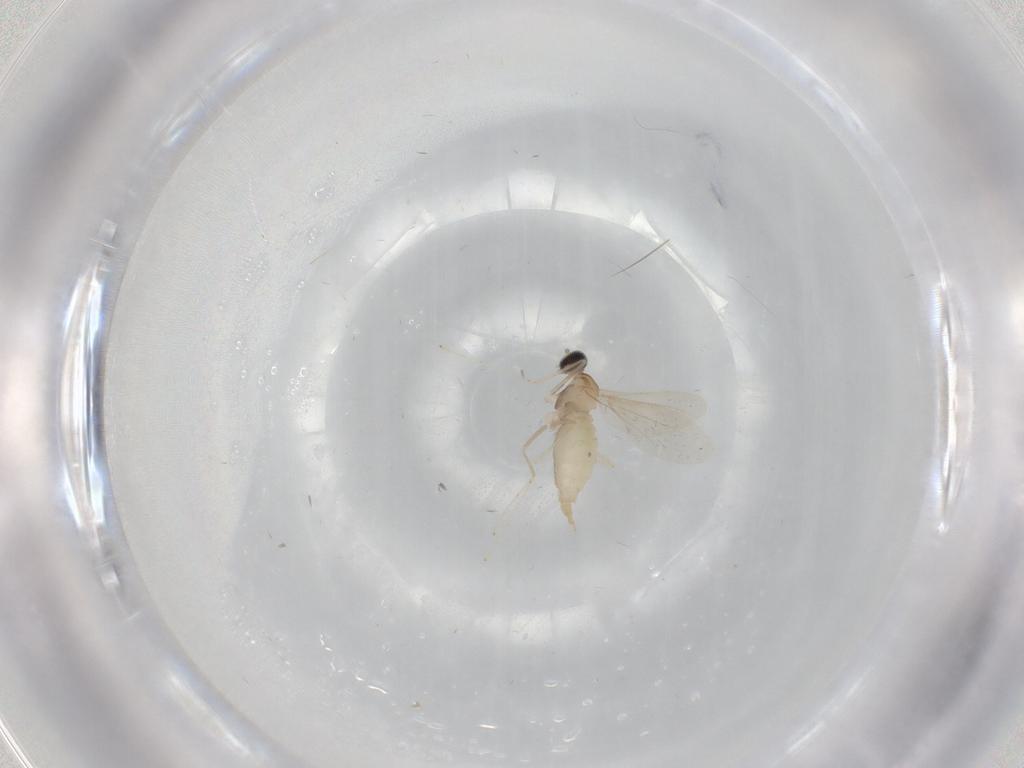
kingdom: Animalia
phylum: Arthropoda
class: Insecta
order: Diptera
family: Cecidomyiidae
